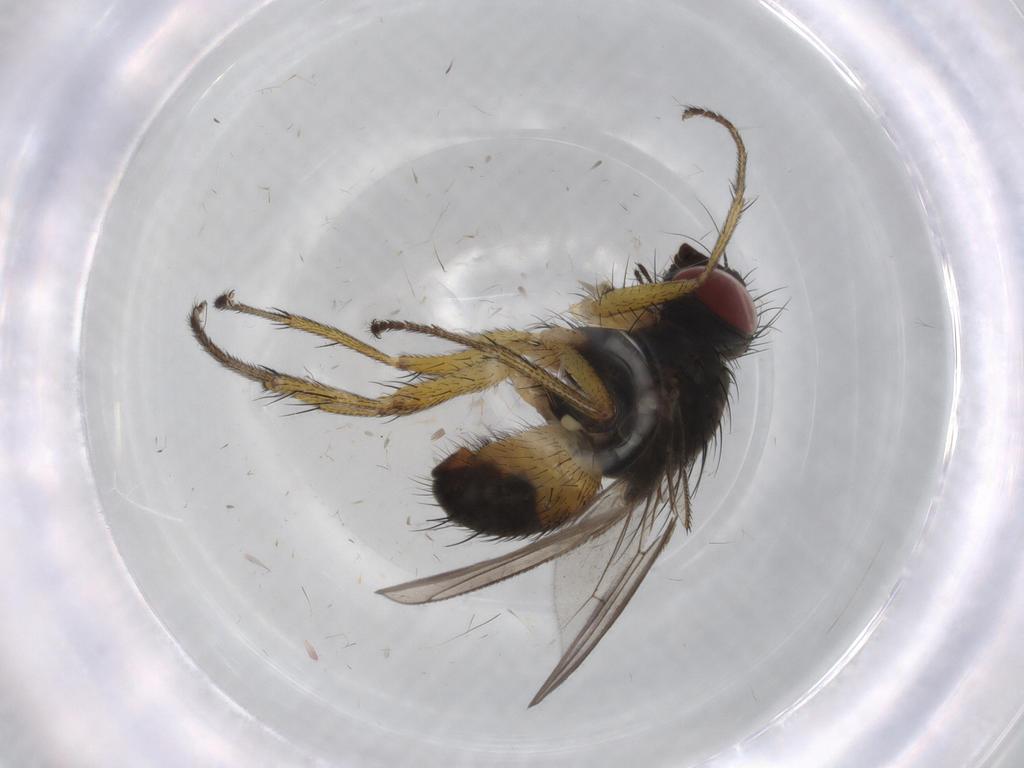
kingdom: Animalia
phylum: Arthropoda
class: Insecta
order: Diptera
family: Muscidae
